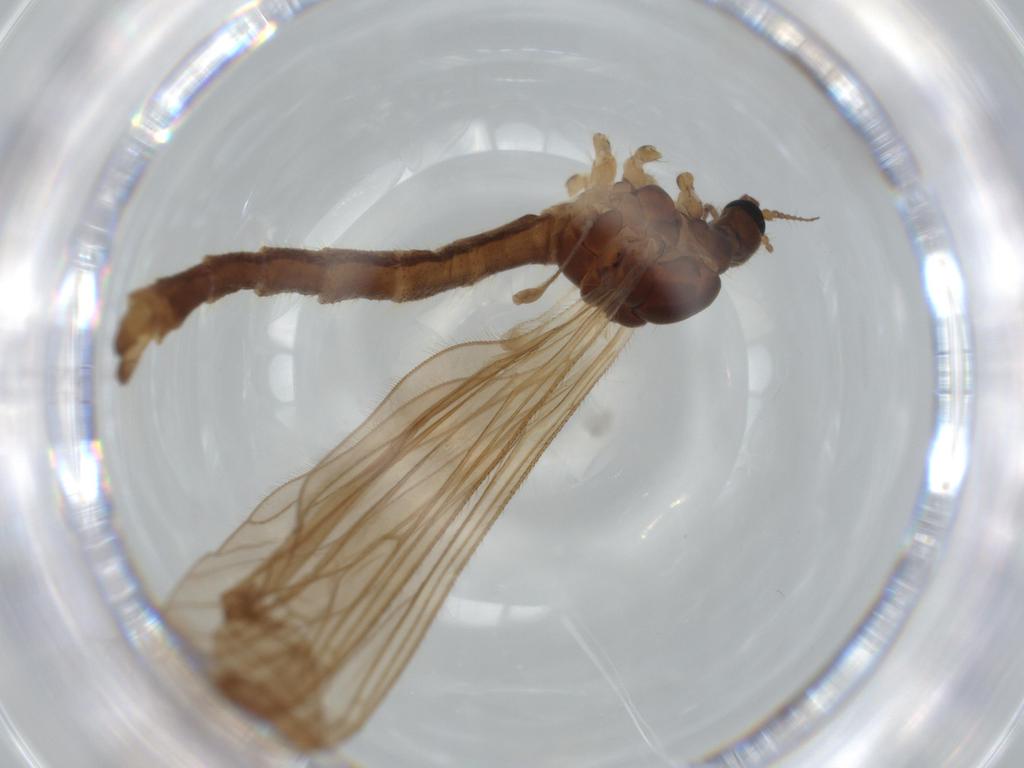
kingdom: Animalia
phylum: Arthropoda
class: Insecta
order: Diptera
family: Limoniidae
